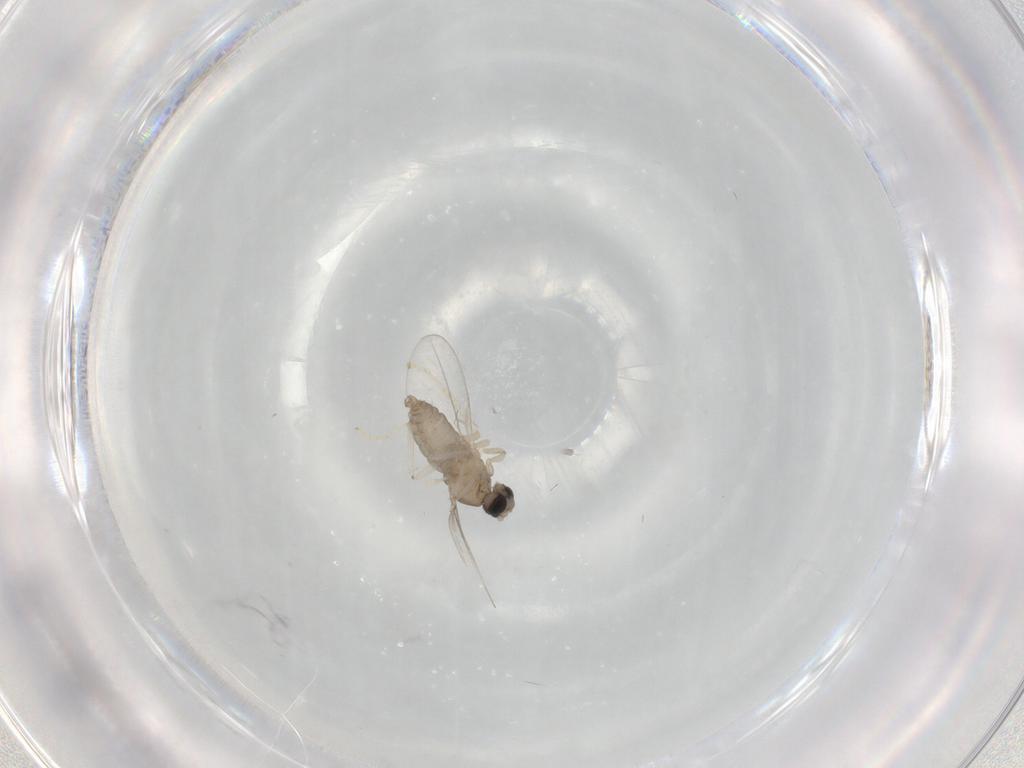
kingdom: Animalia
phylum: Arthropoda
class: Insecta
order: Diptera
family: Cecidomyiidae
